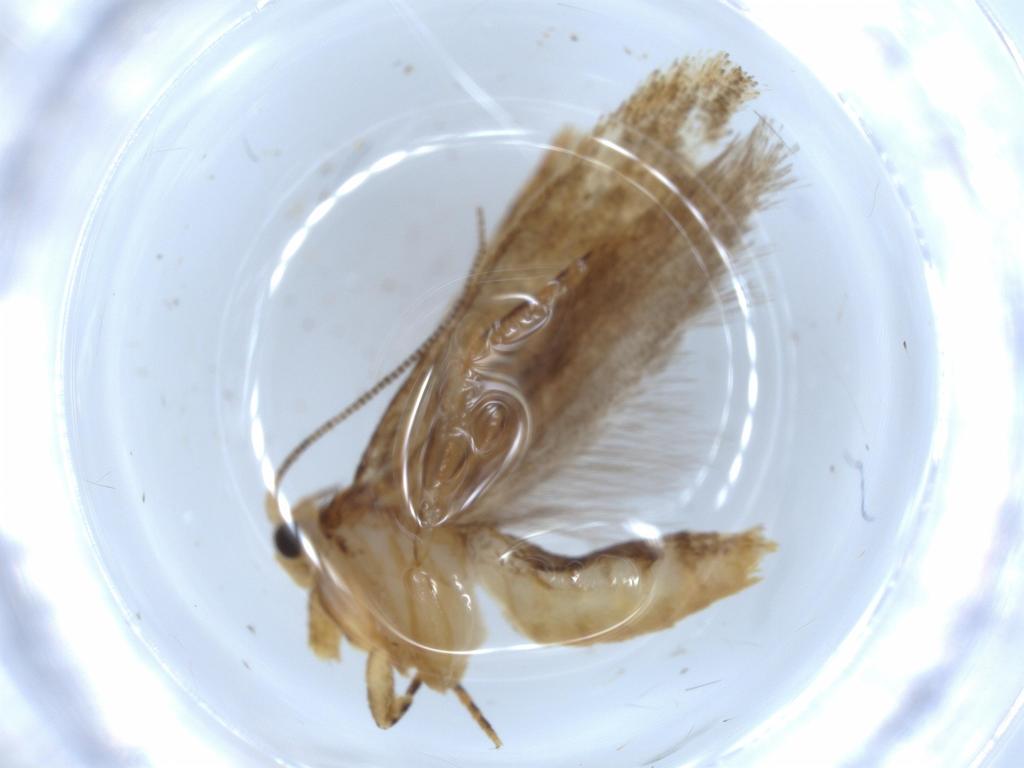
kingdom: Animalia
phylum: Arthropoda
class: Insecta
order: Lepidoptera
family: Tineidae
